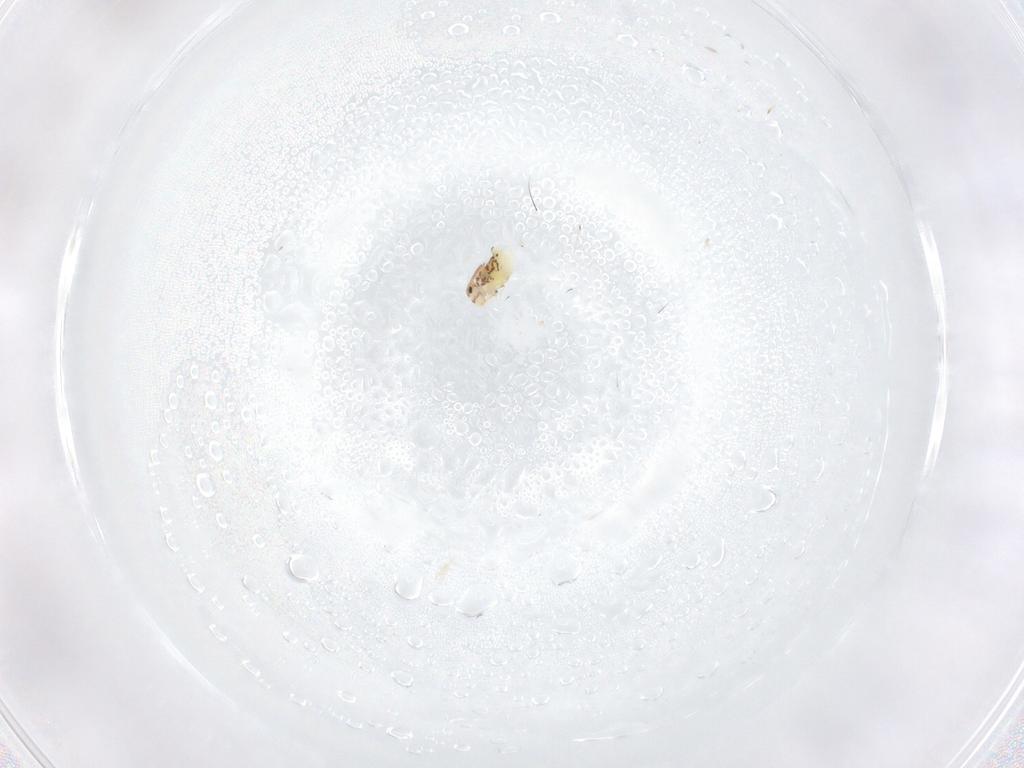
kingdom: Animalia
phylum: Arthropoda
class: Collembola
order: Symphypleona
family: Bourletiellidae
